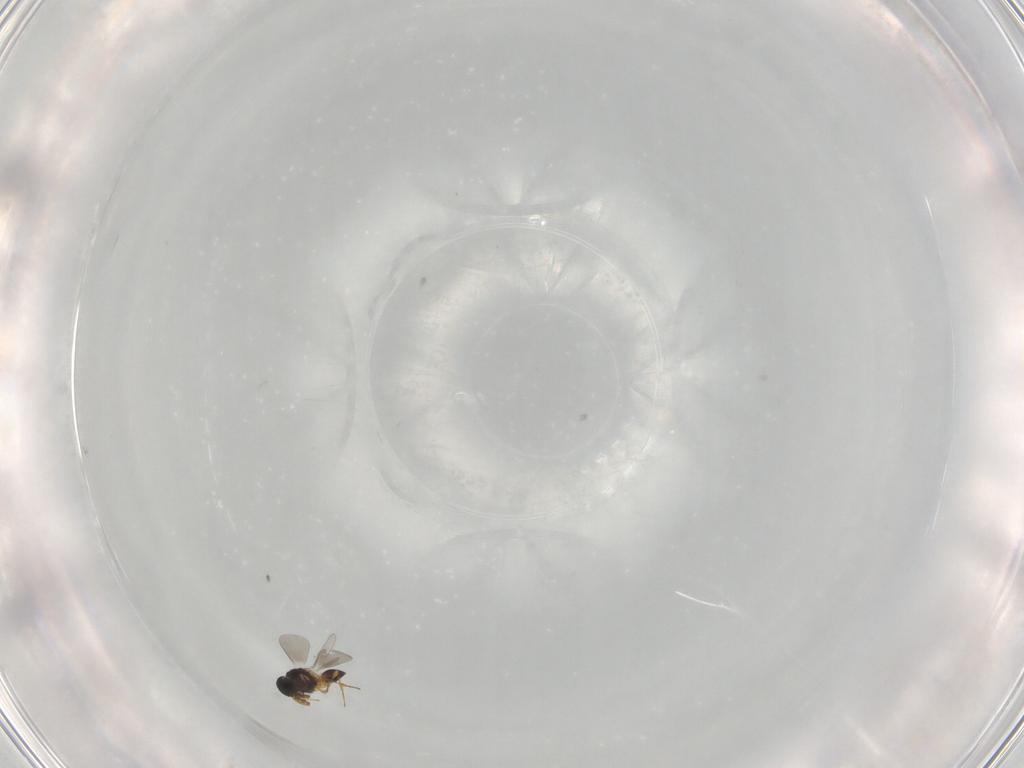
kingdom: Animalia
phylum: Arthropoda
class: Insecta
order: Hymenoptera
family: Platygastridae
